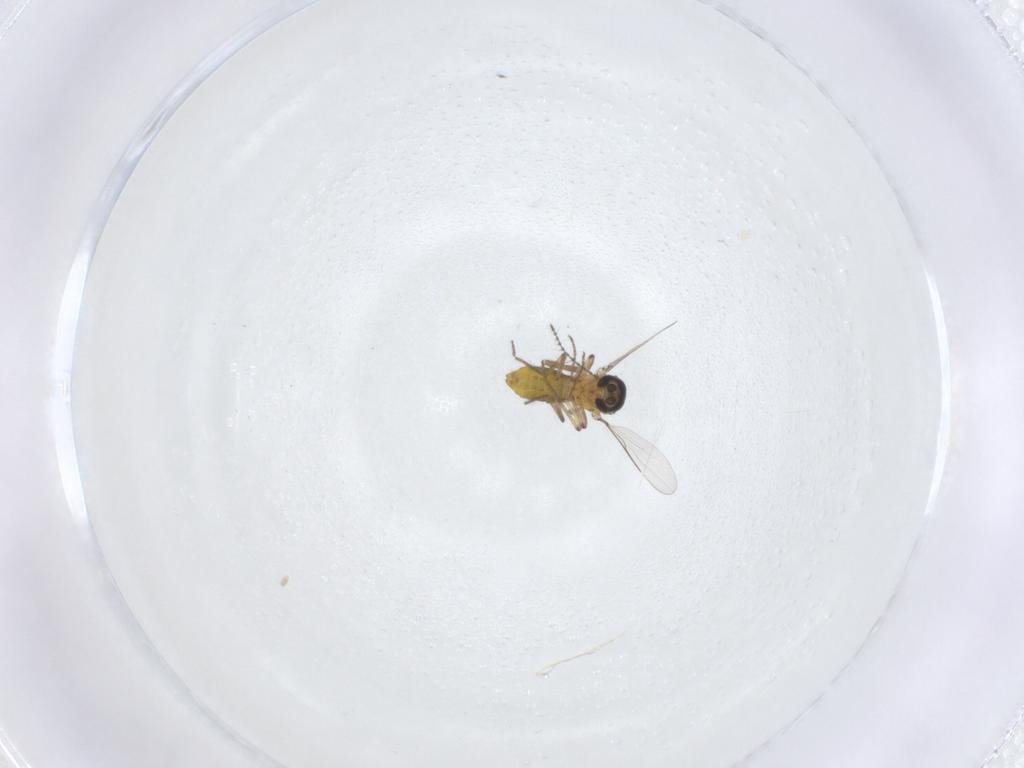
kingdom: Animalia
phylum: Arthropoda
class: Insecta
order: Diptera
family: Ceratopogonidae
